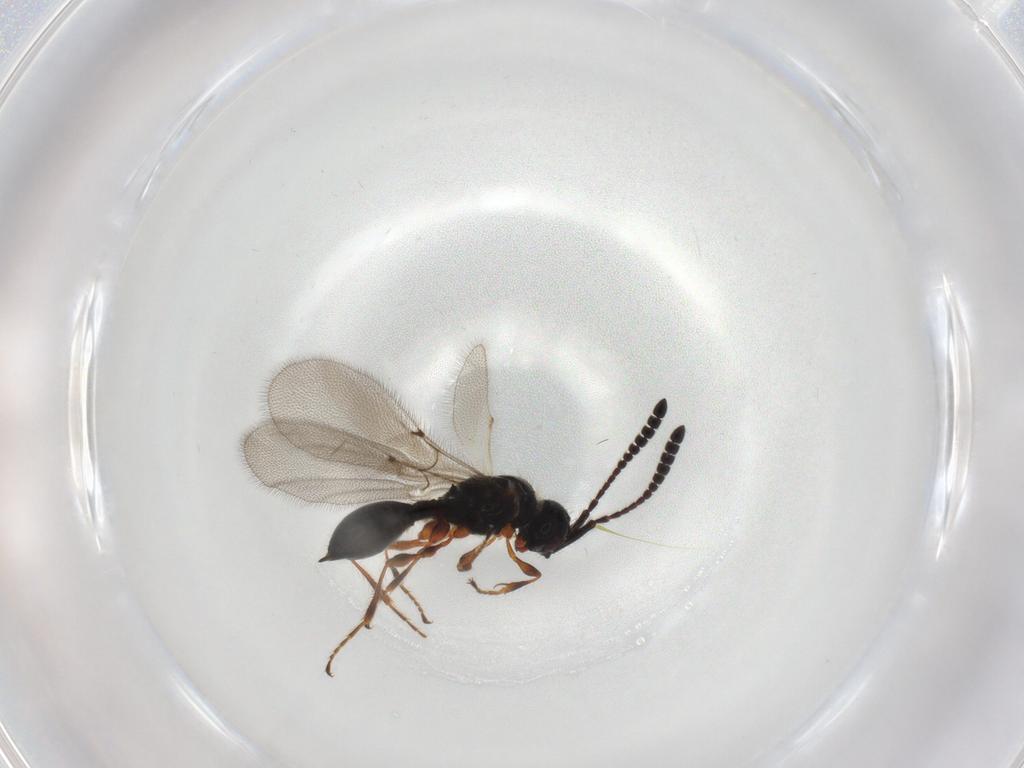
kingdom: Animalia
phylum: Arthropoda
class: Insecta
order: Hymenoptera
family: Diapriidae
